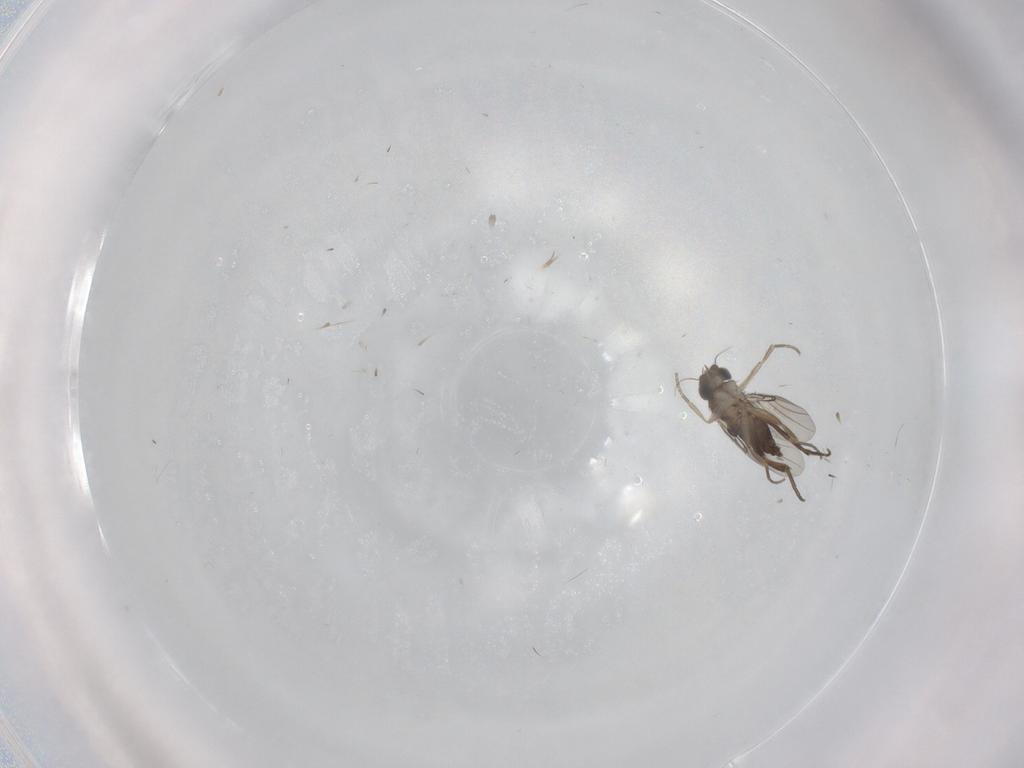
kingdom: Animalia
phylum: Arthropoda
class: Insecta
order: Diptera
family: Phoridae
